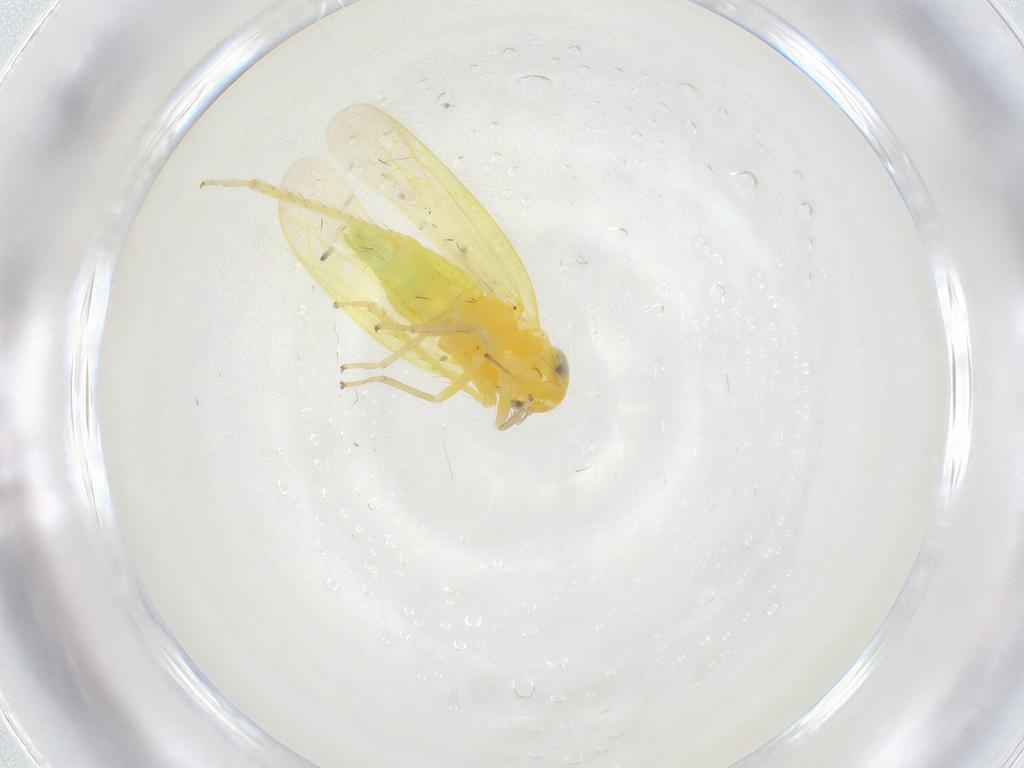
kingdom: Animalia
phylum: Arthropoda
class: Insecta
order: Hemiptera
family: Cicadellidae
